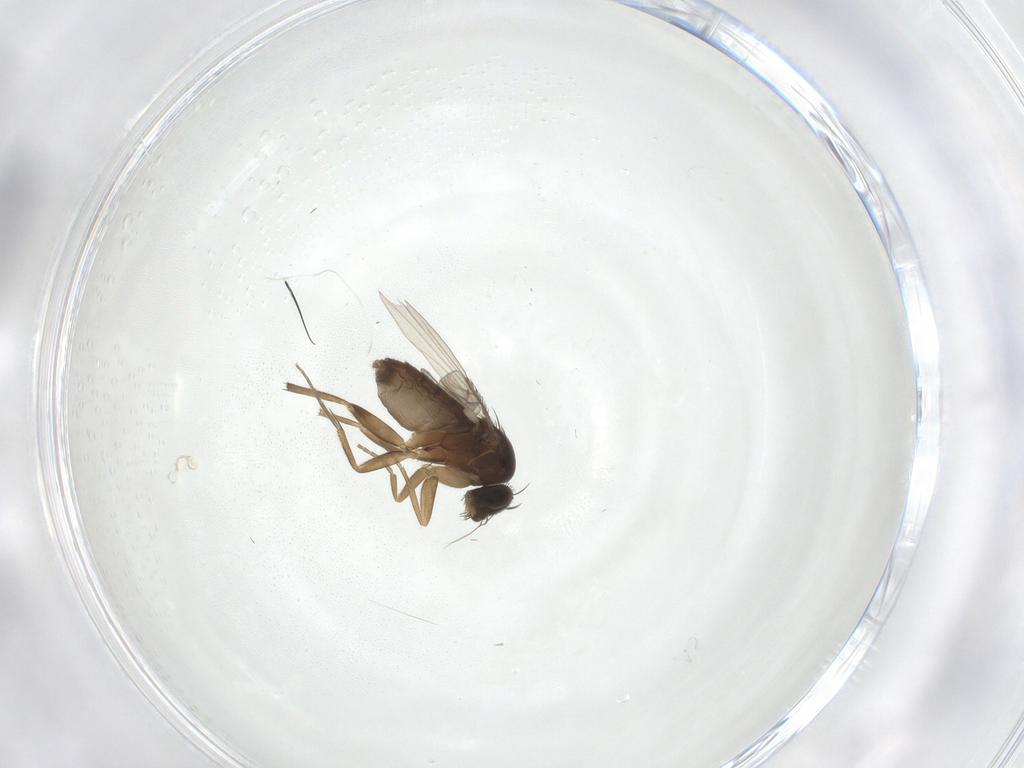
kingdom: Animalia
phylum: Arthropoda
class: Insecta
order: Diptera
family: Phoridae
